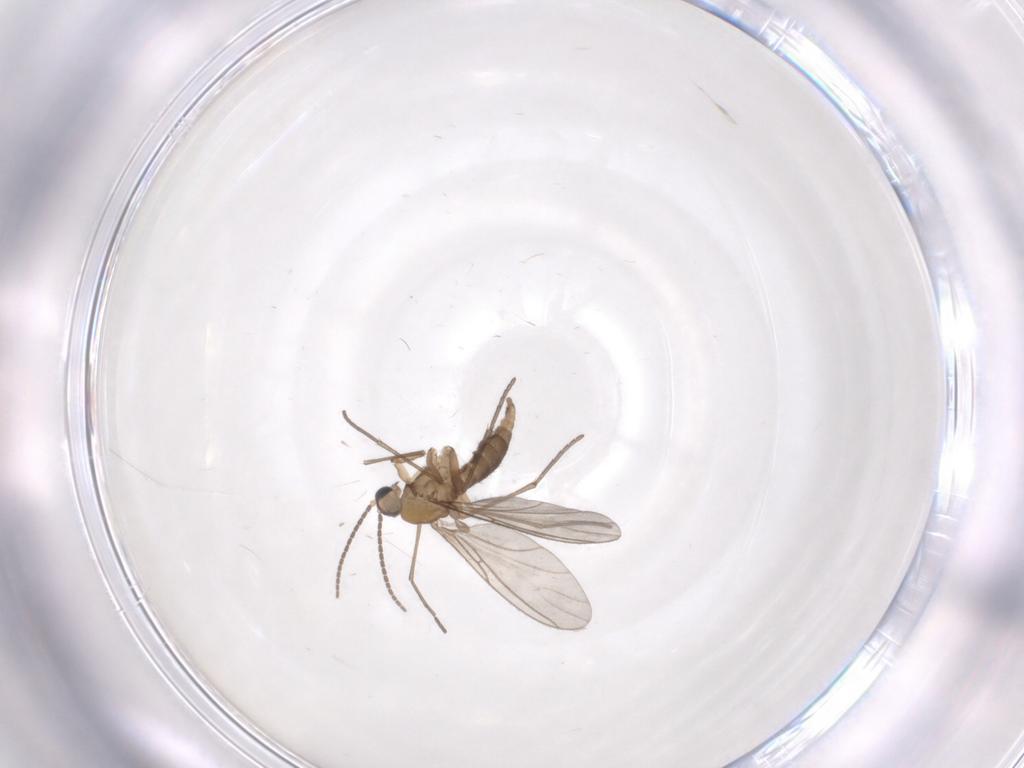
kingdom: Animalia
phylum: Arthropoda
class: Insecta
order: Diptera
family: Sciaridae
